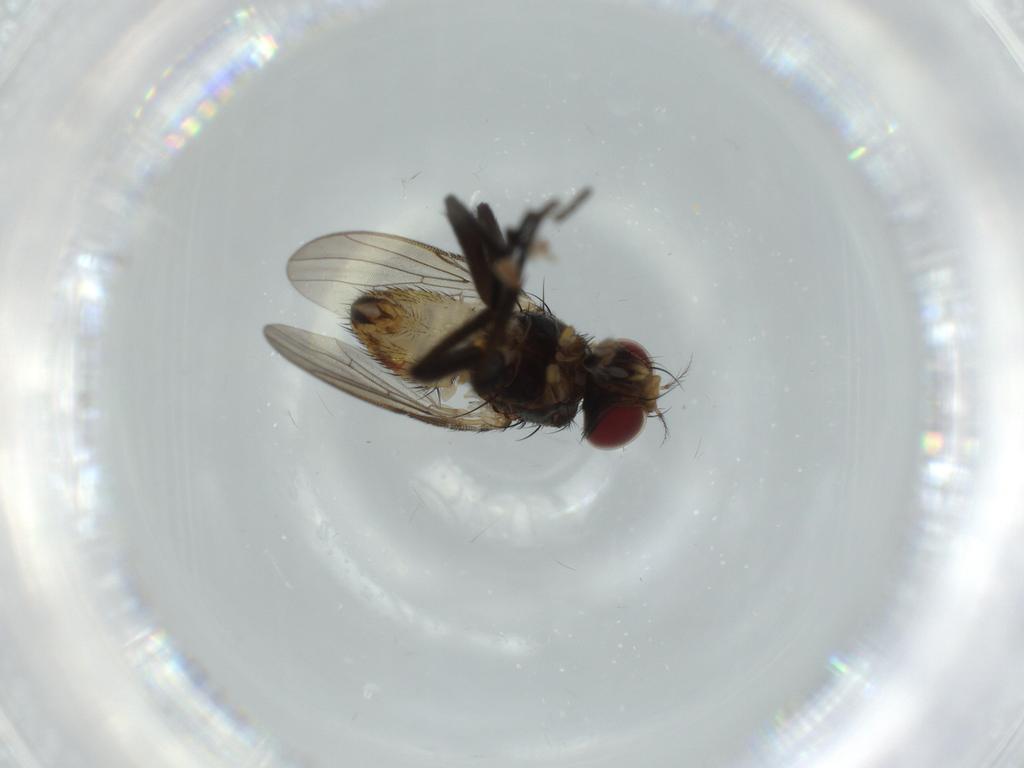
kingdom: Animalia
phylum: Arthropoda
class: Insecta
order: Diptera
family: Anthomyiidae
